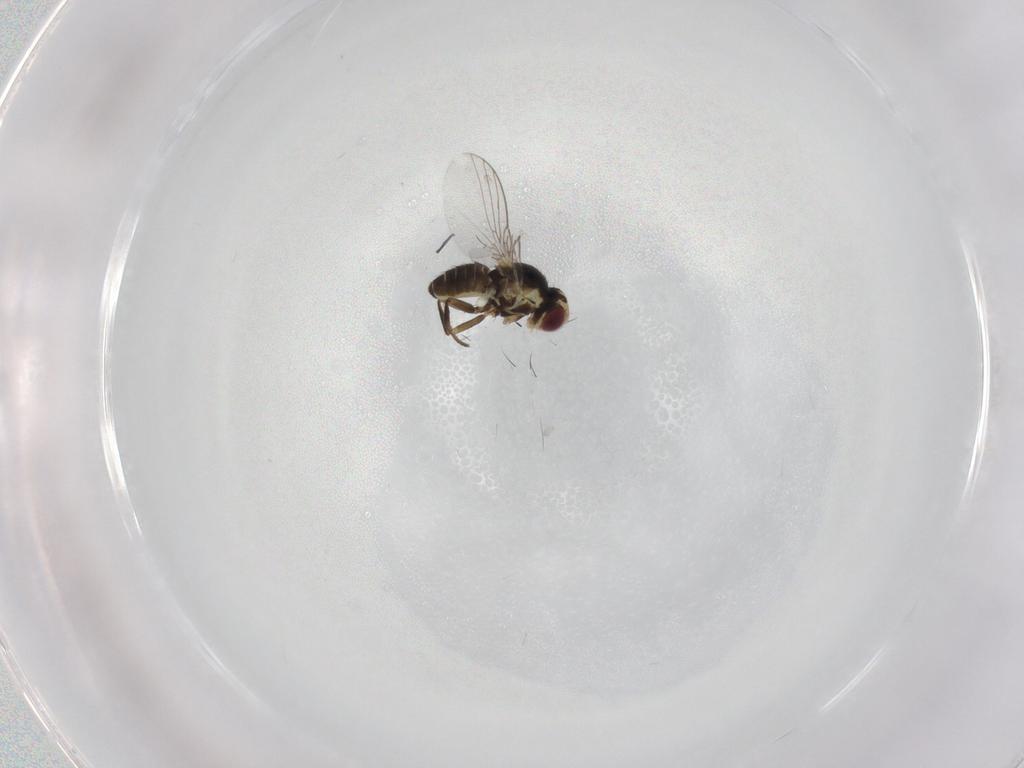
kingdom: Animalia
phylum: Arthropoda
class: Insecta
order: Diptera
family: Agromyzidae
